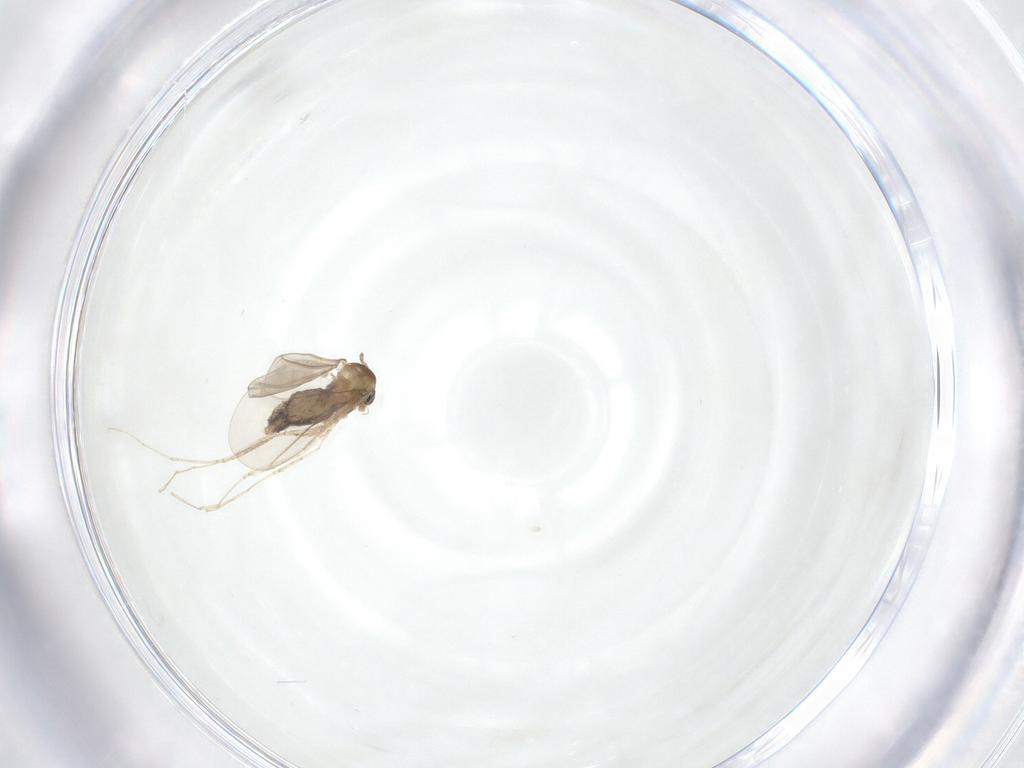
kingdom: Animalia
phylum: Arthropoda
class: Insecta
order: Diptera
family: Cecidomyiidae
